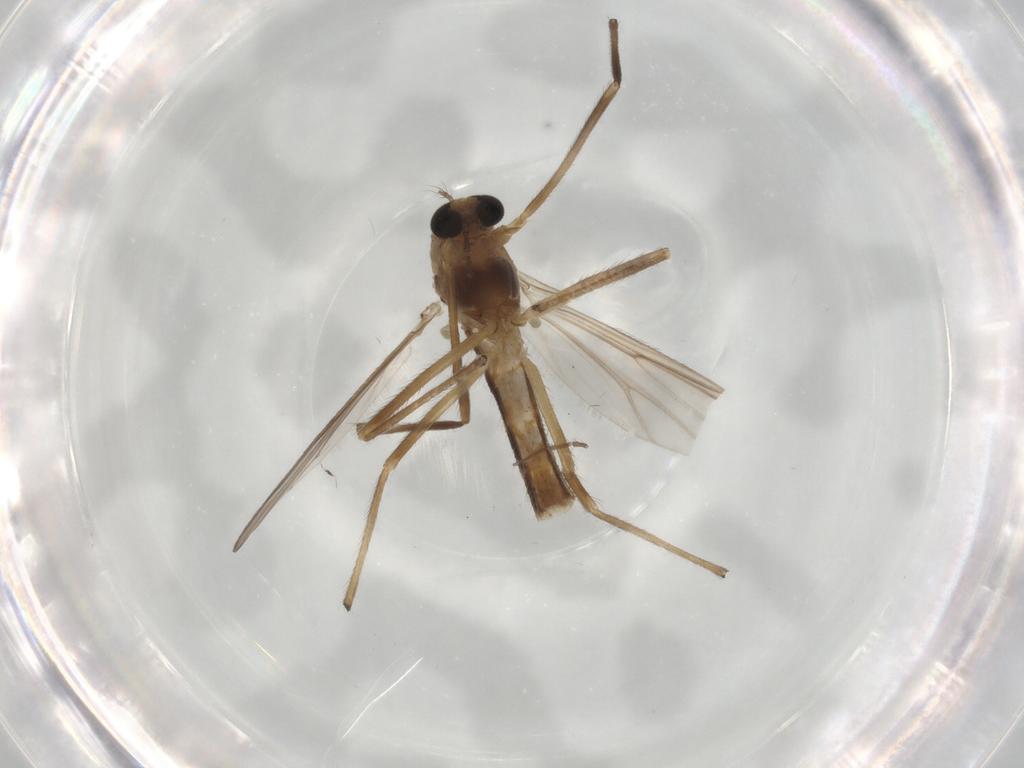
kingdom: Animalia
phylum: Arthropoda
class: Insecta
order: Diptera
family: Chironomidae
